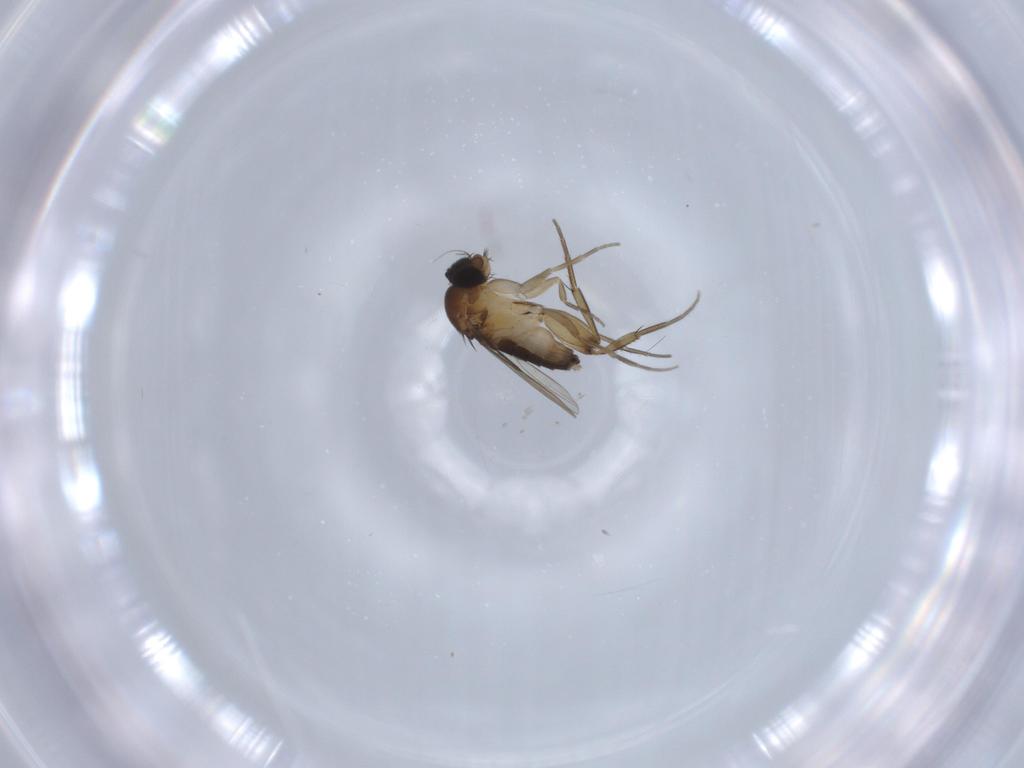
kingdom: Animalia
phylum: Arthropoda
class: Insecta
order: Diptera
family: Phoridae
